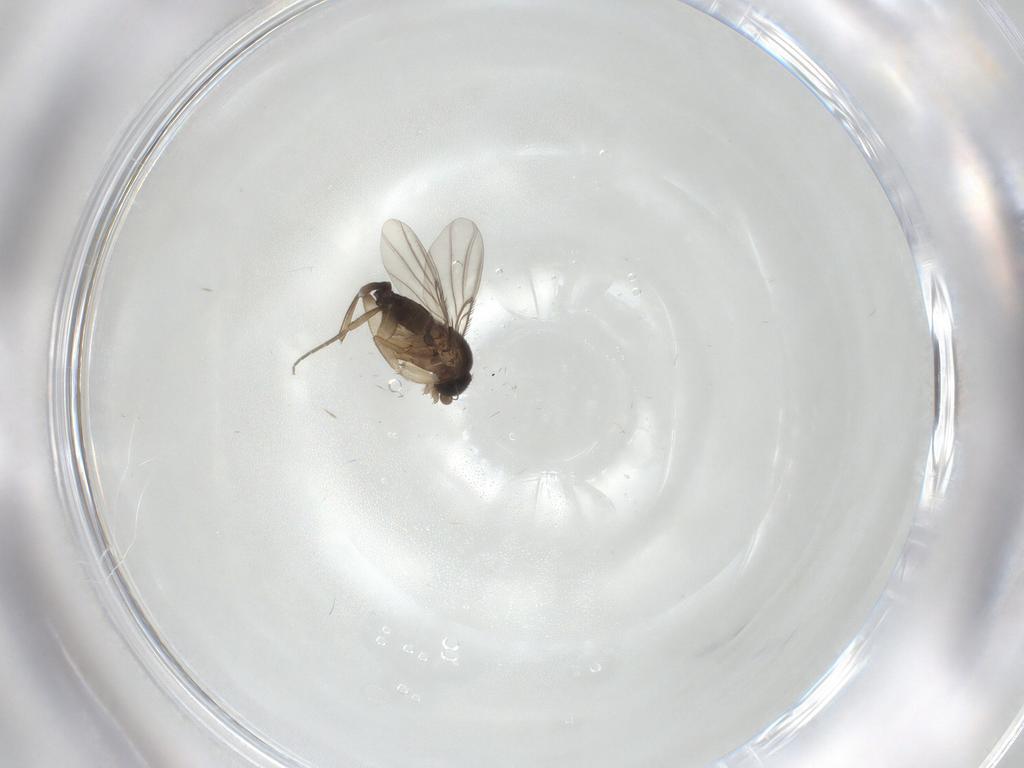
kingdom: Animalia
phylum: Arthropoda
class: Insecta
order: Diptera
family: Phoridae
